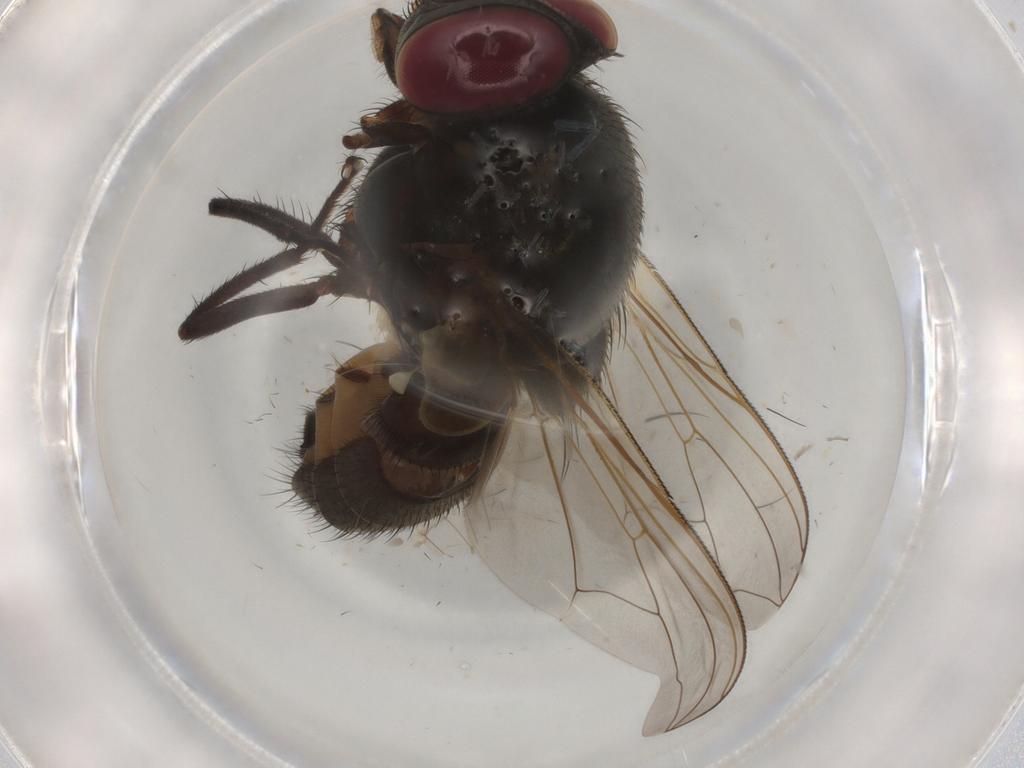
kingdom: Animalia
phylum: Arthropoda
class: Insecta
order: Diptera
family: Muscidae
